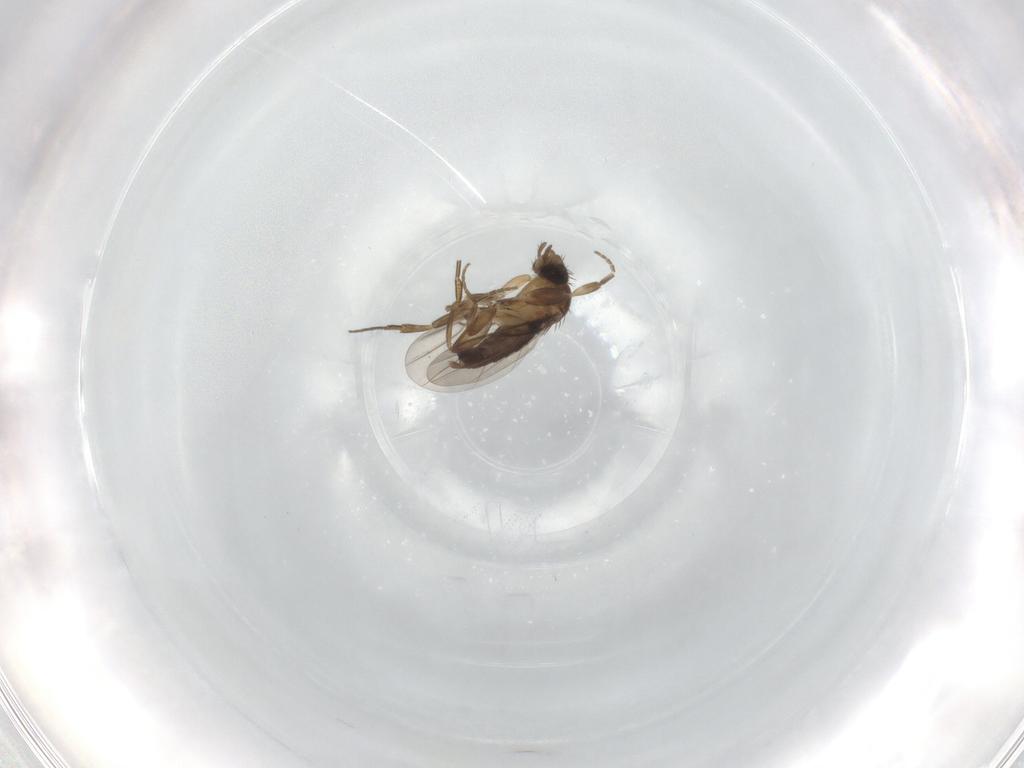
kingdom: Animalia
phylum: Arthropoda
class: Insecta
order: Diptera
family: Phoridae
